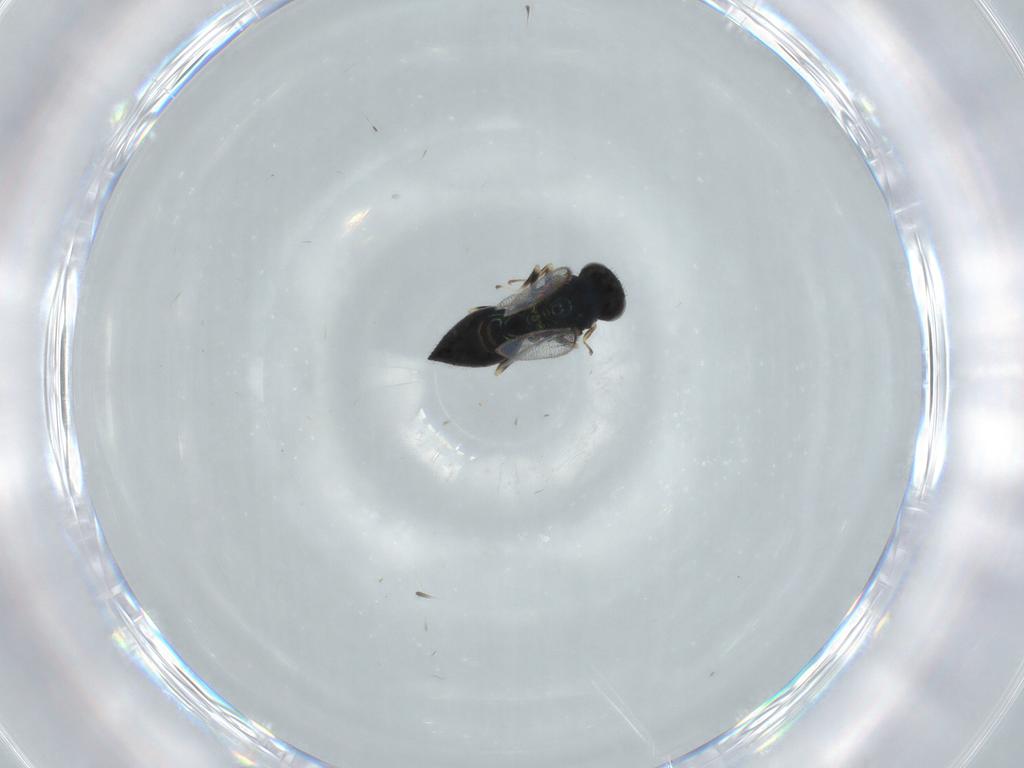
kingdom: Animalia
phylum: Arthropoda
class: Insecta
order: Hymenoptera
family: Eulophidae
